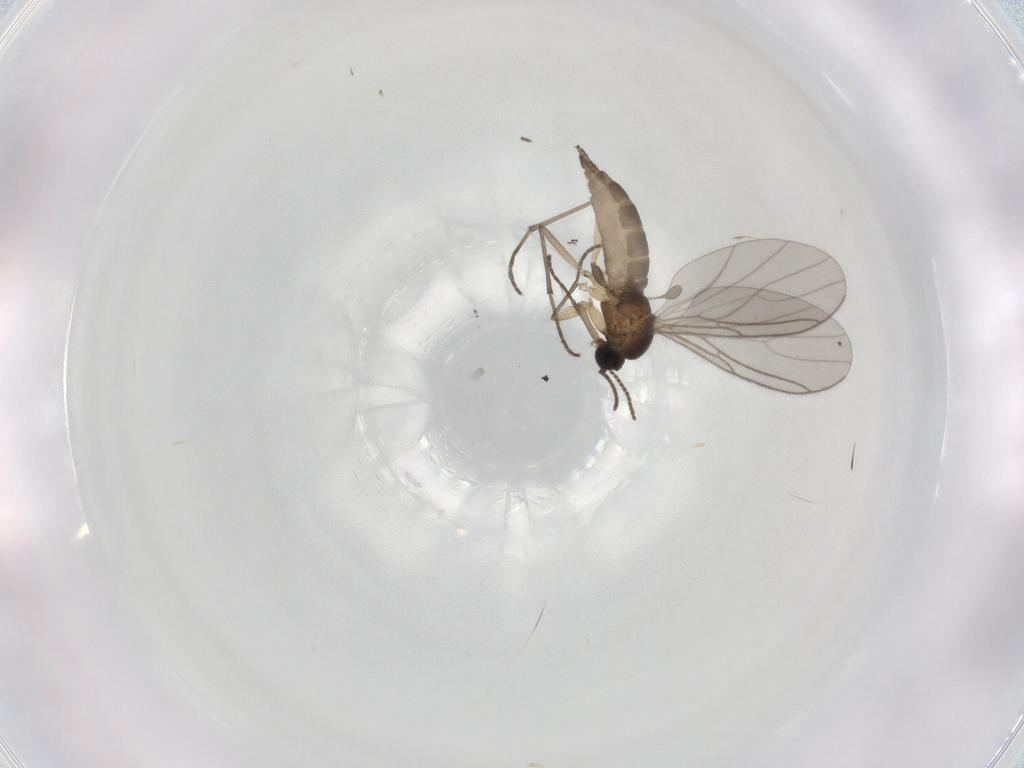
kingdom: Animalia
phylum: Arthropoda
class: Insecta
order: Diptera
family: Sciaridae
